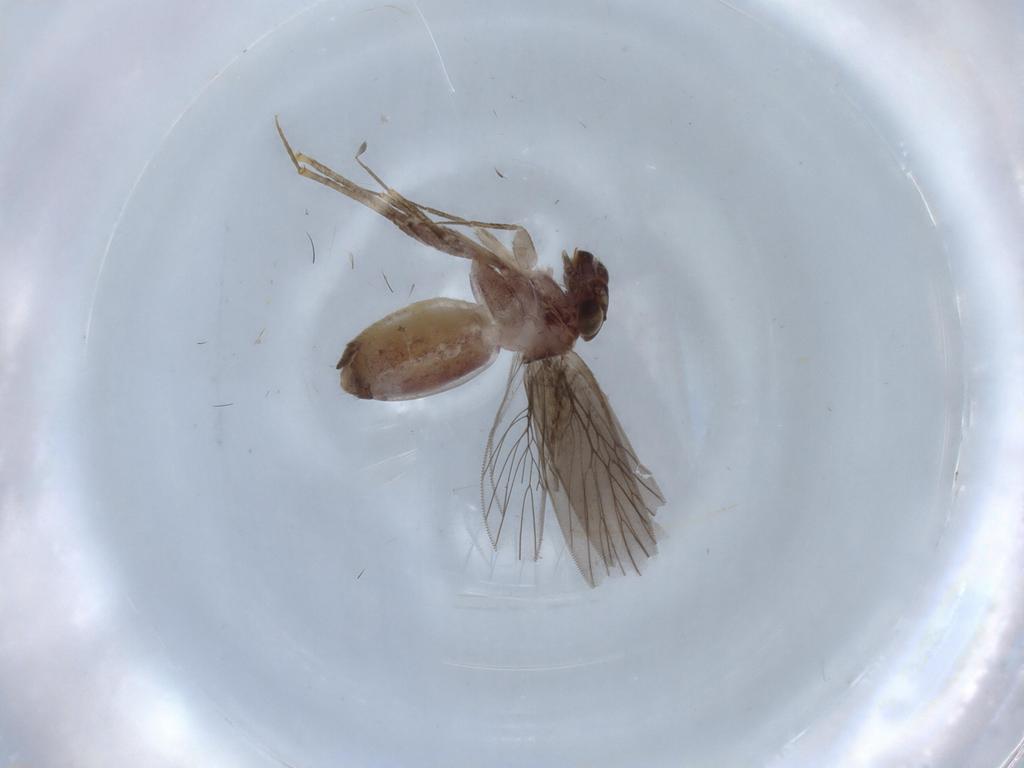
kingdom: Animalia
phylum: Arthropoda
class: Insecta
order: Psocodea
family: Lepidopsocidae
